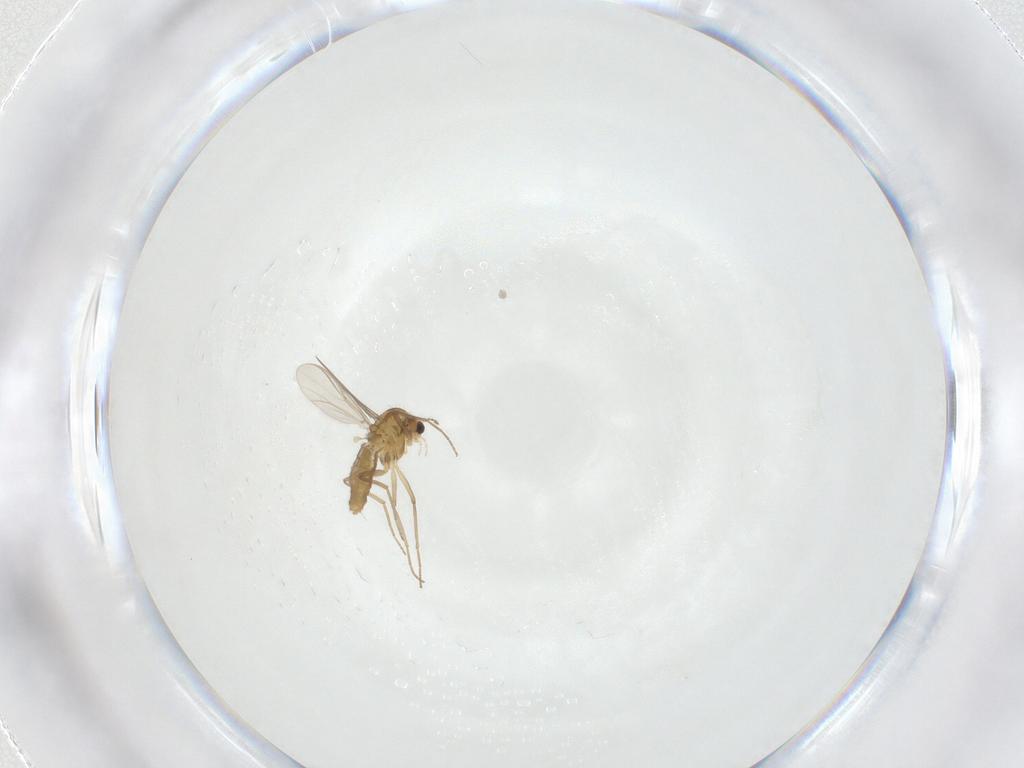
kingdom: Animalia
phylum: Arthropoda
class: Insecta
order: Diptera
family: Chironomidae
